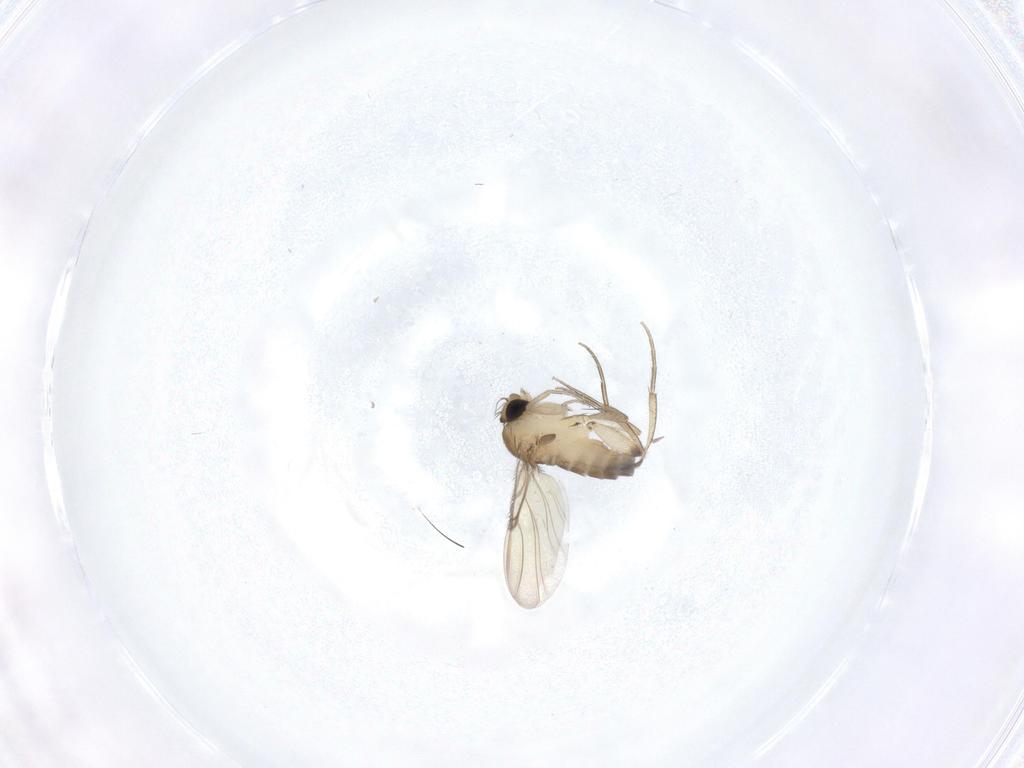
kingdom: Animalia
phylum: Arthropoda
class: Insecta
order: Diptera
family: Phoridae
